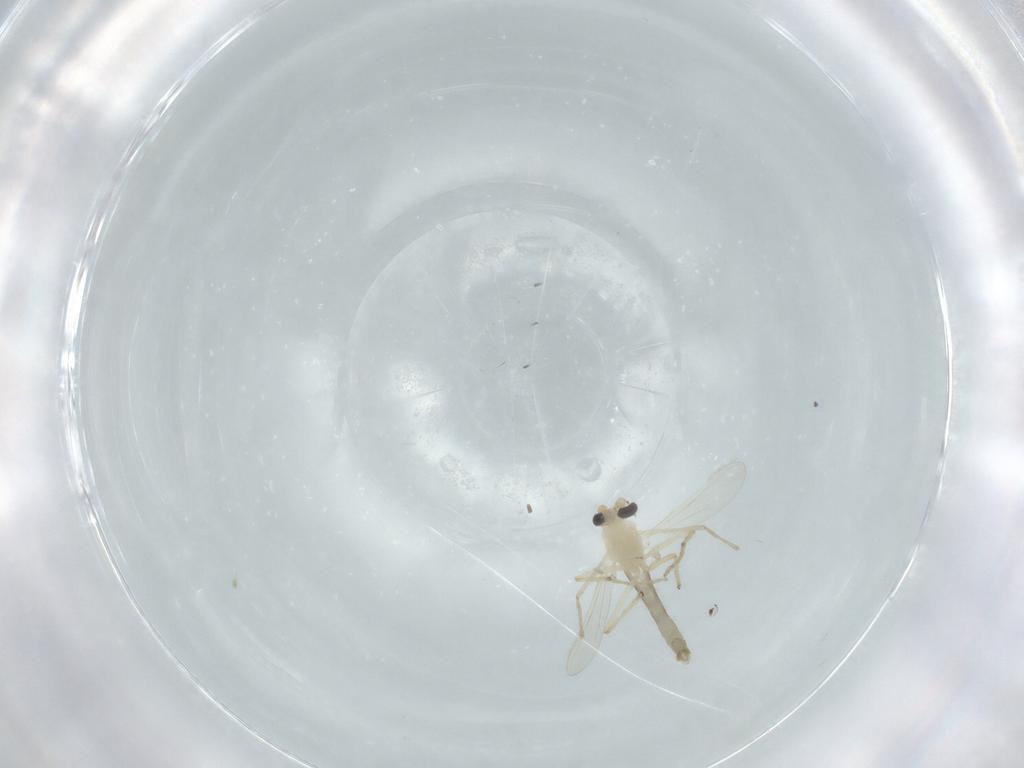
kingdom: Animalia
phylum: Arthropoda
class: Insecta
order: Diptera
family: Chironomidae
